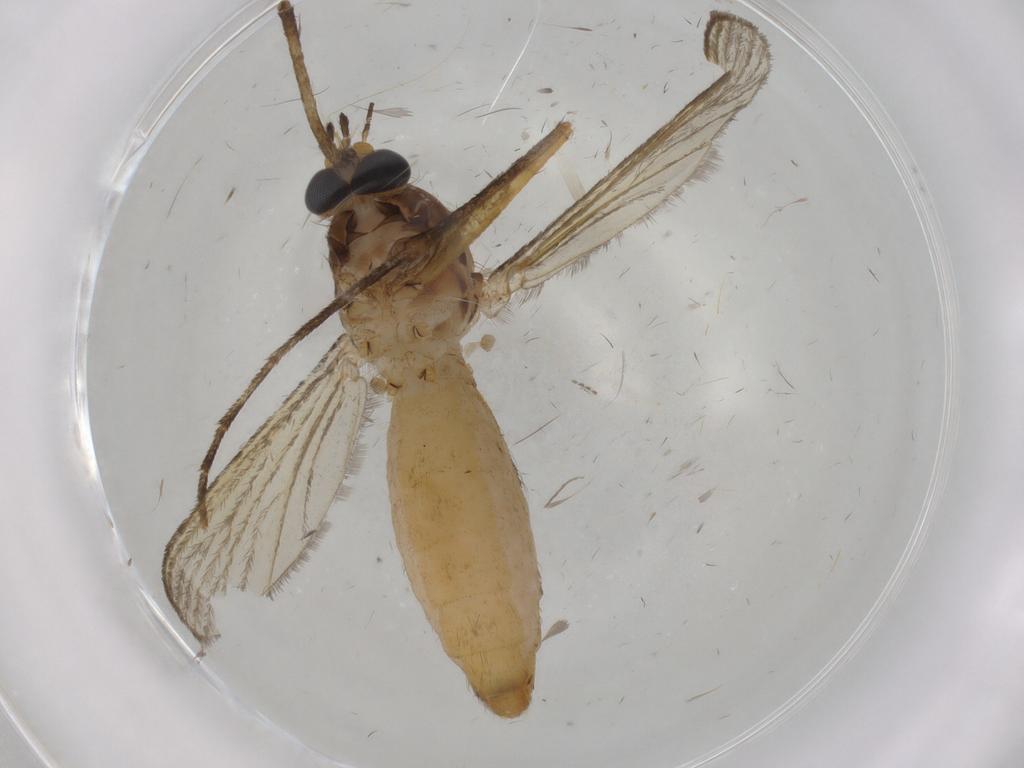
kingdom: Animalia
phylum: Arthropoda
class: Insecta
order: Diptera
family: Culicidae
